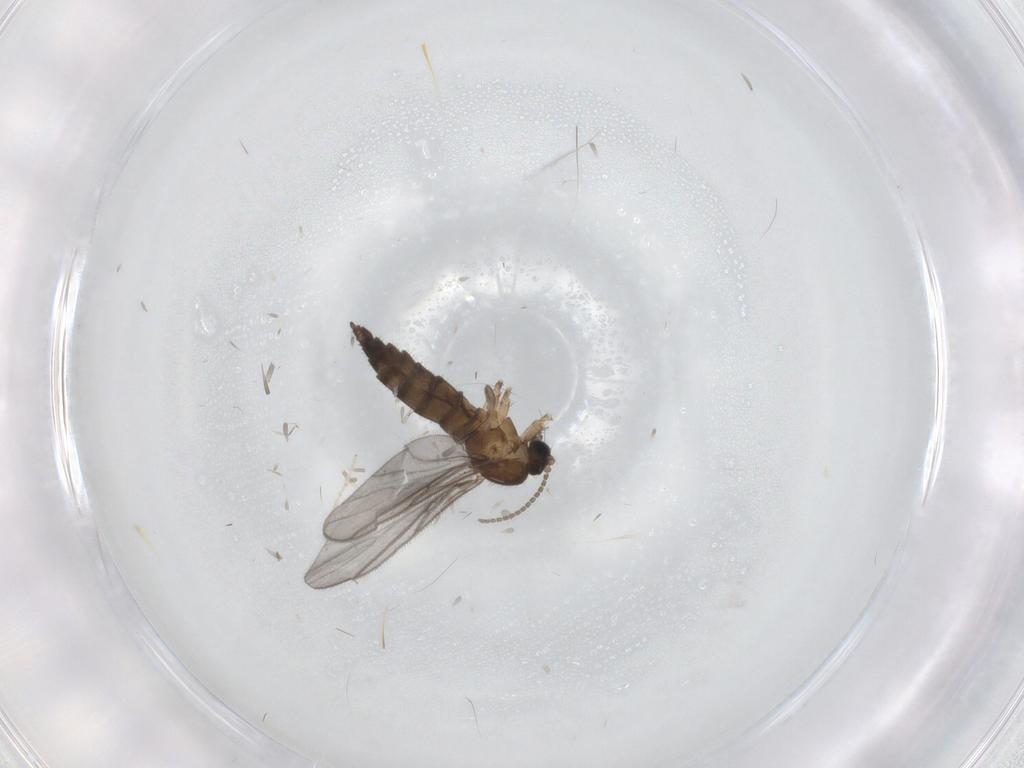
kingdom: Animalia
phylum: Arthropoda
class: Insecta
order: Diptera
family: Sciaridae
